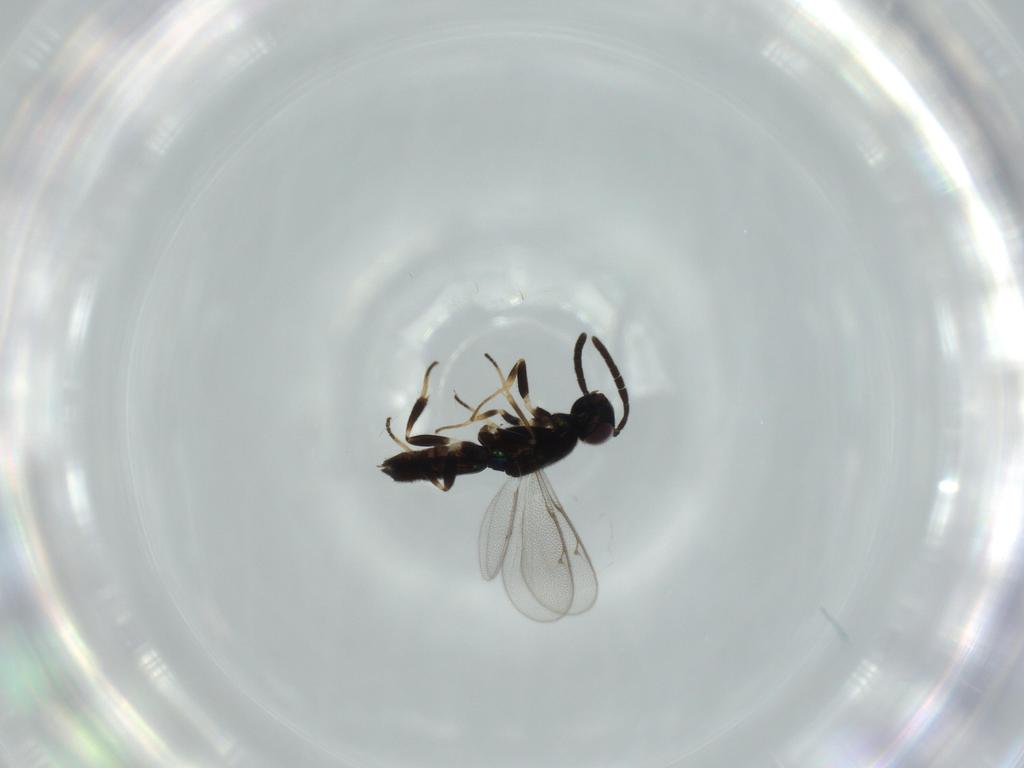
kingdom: Animalia
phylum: Arthropoda
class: Insecta
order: Hymenoptera
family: Eupelmidae
